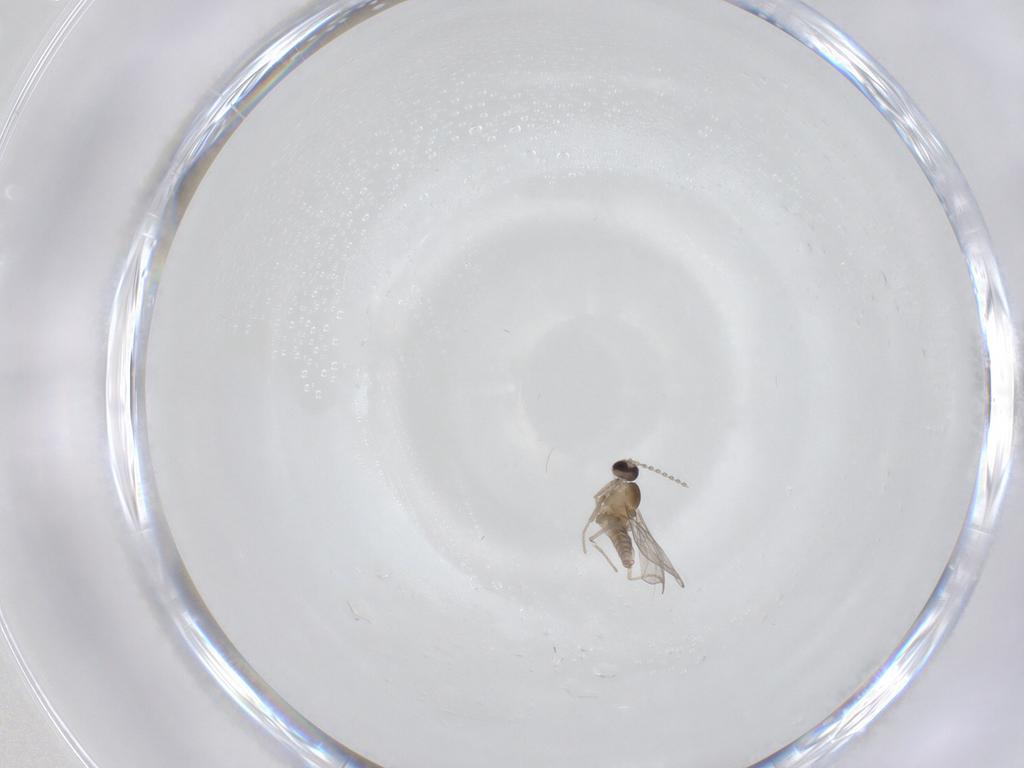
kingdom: Animalia
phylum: Arthropoda
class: Insecta
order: Diptera
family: Cecidomyiidae
